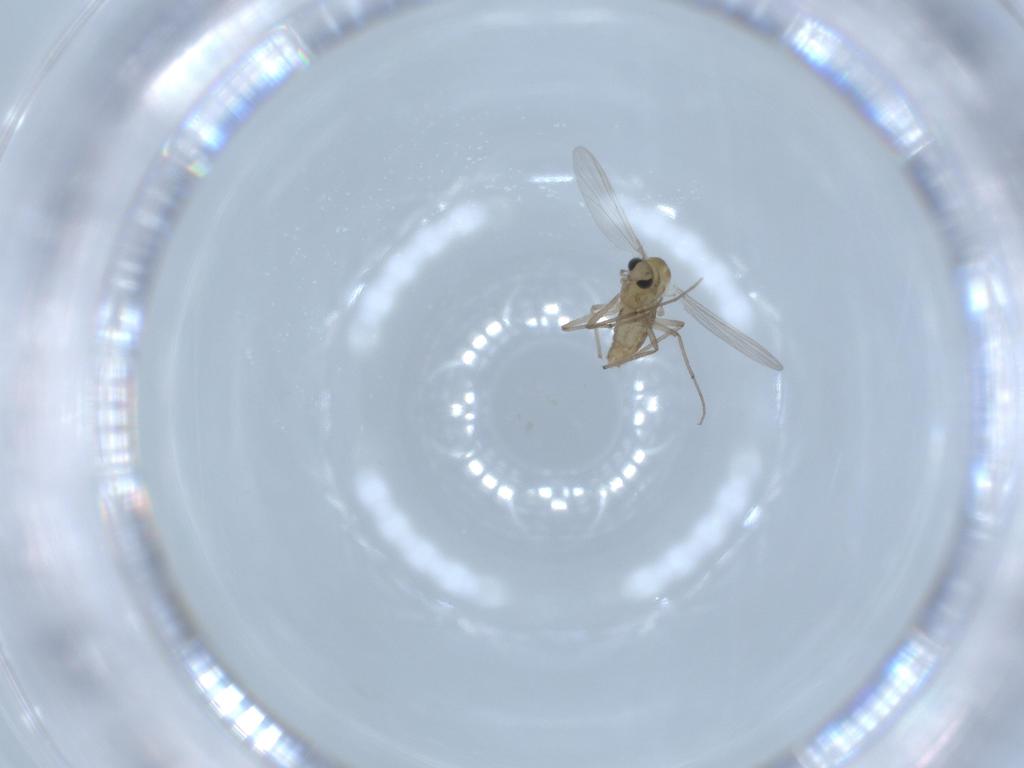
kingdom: Animalia
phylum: Arthropoda
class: Insecta
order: Diptera
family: Chironomidae
